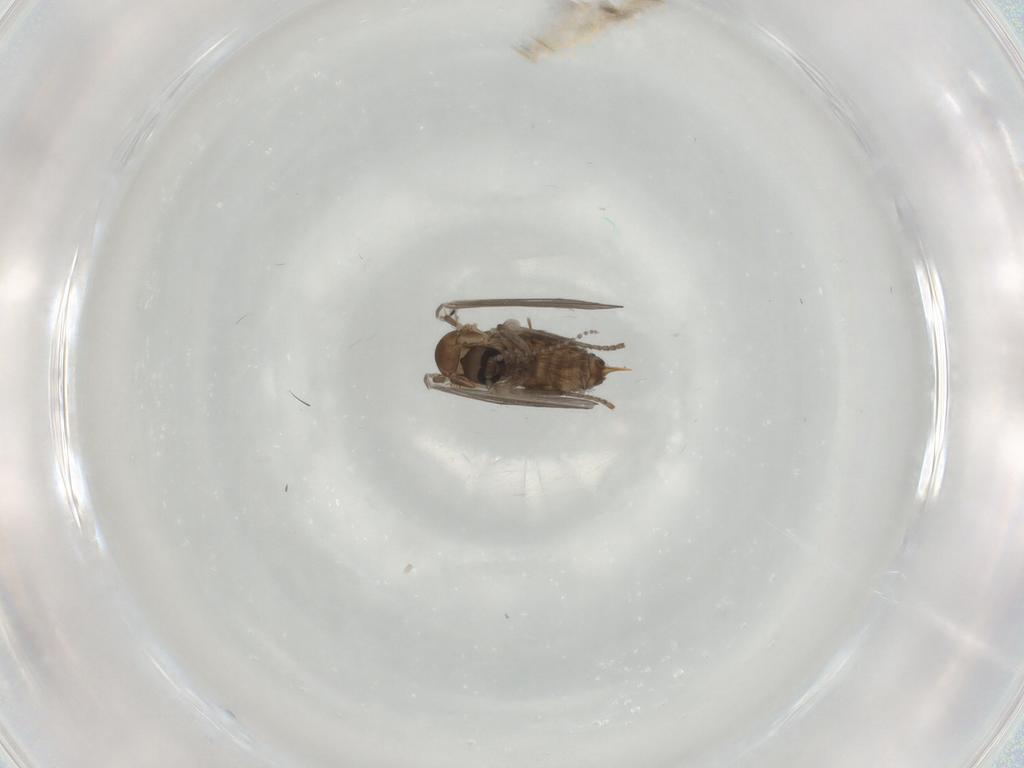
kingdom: Animalia
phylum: Arthropoda
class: Insecta
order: Diptera
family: Chironomidae
